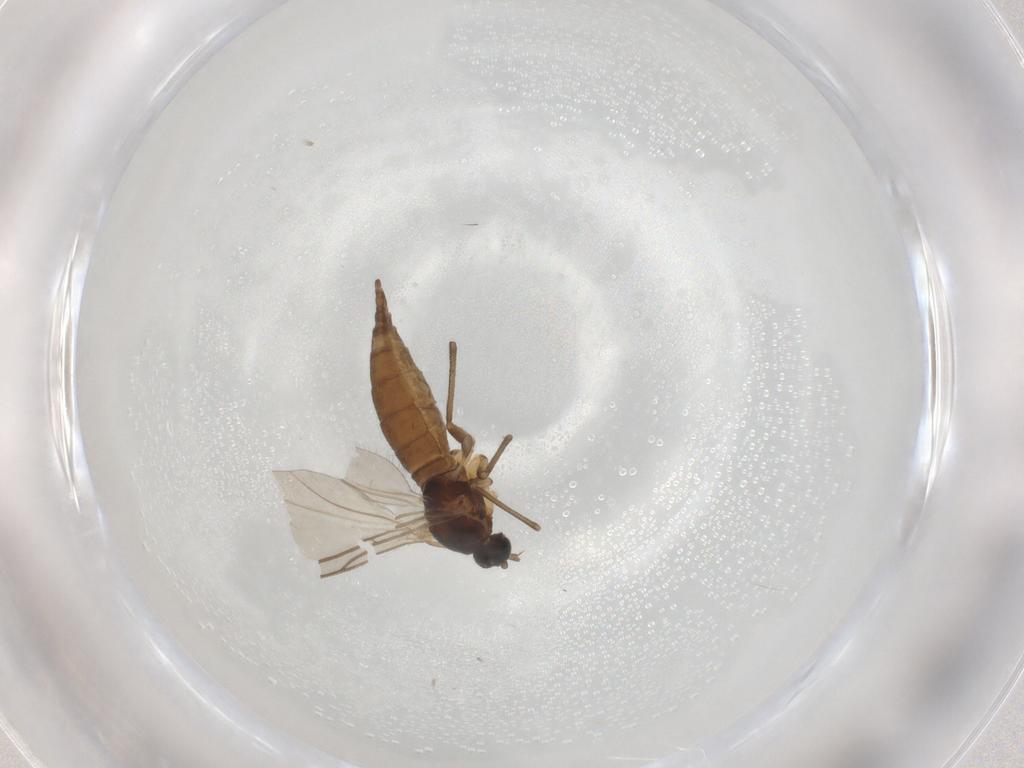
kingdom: Animalia
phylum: Arthropoda
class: Insecta
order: Diptera
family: Sciaridae
